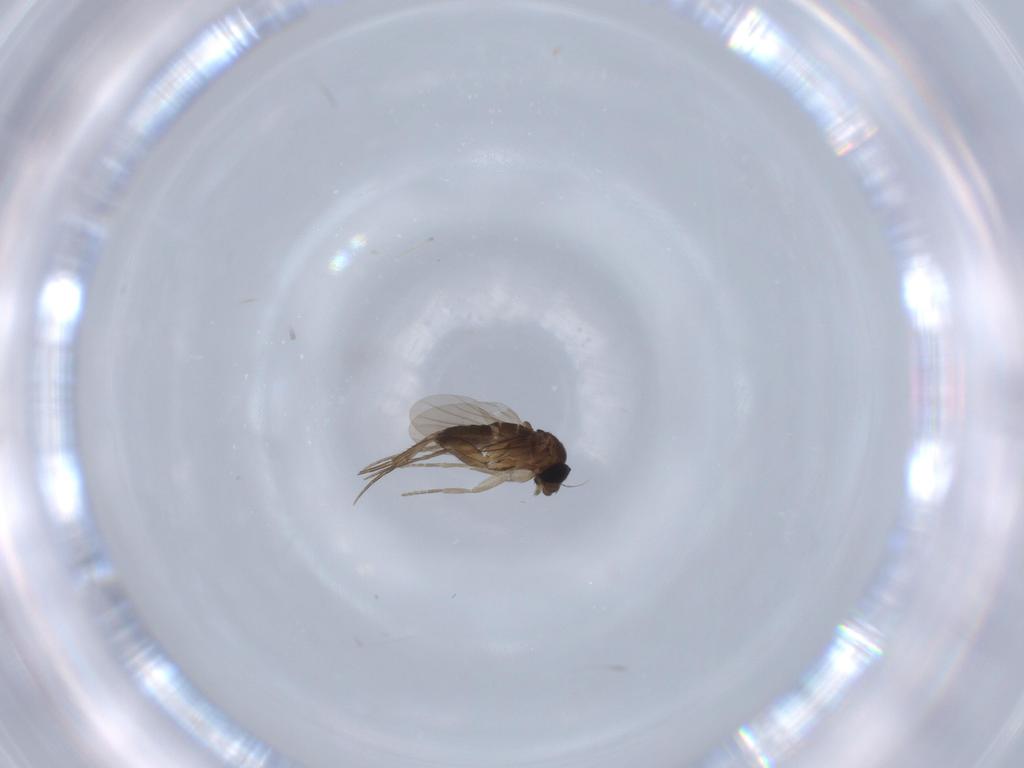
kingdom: Animalia
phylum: Arthropoda
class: Insecta
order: Diptera
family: Phoridae
